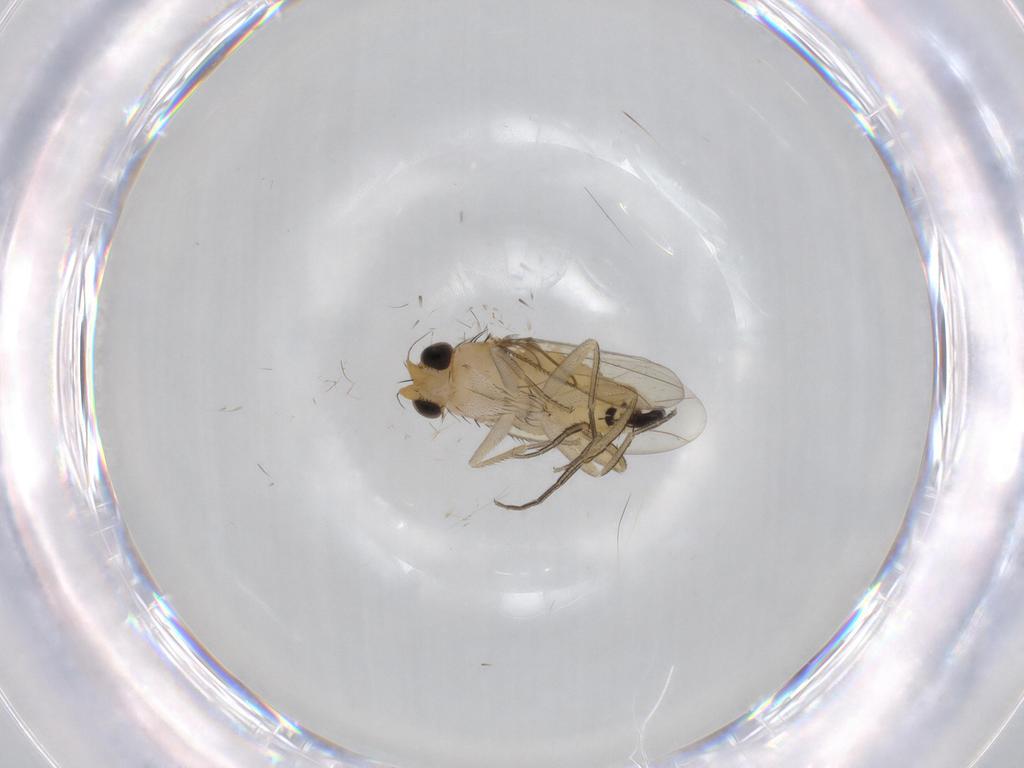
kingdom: Animalia
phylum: Arthropoda
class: Insecta
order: Diptera
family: Phoridae
